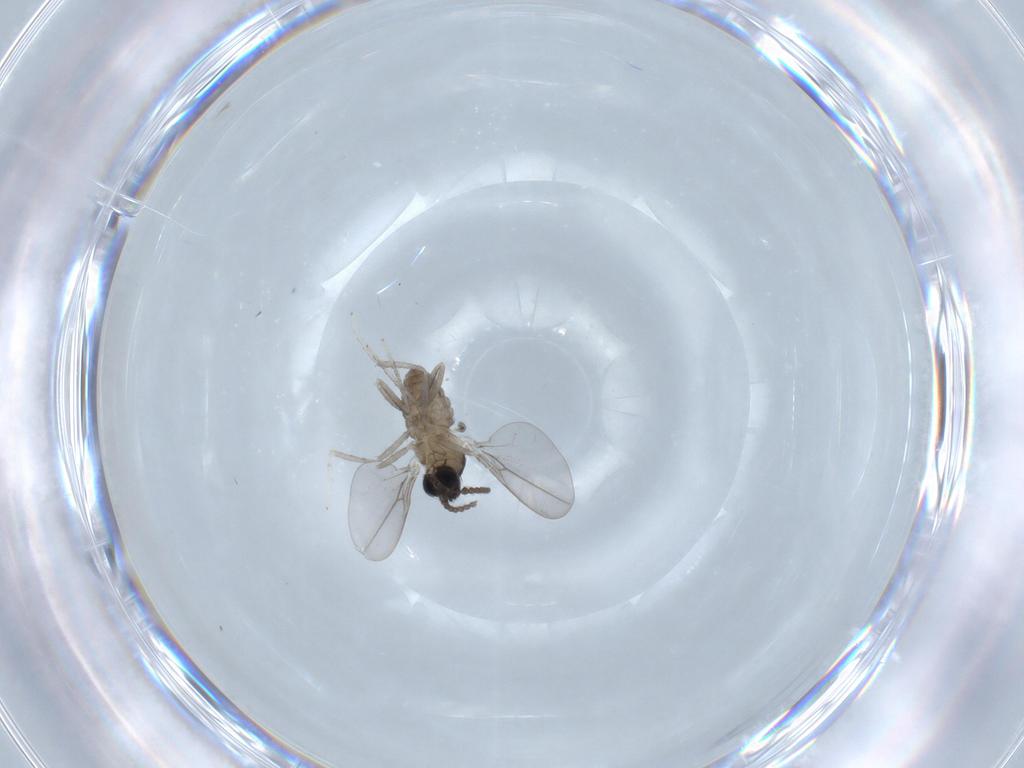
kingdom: Animalia
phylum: Arthropoda
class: Insecta
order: Diptera
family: Cecidomyiidae
